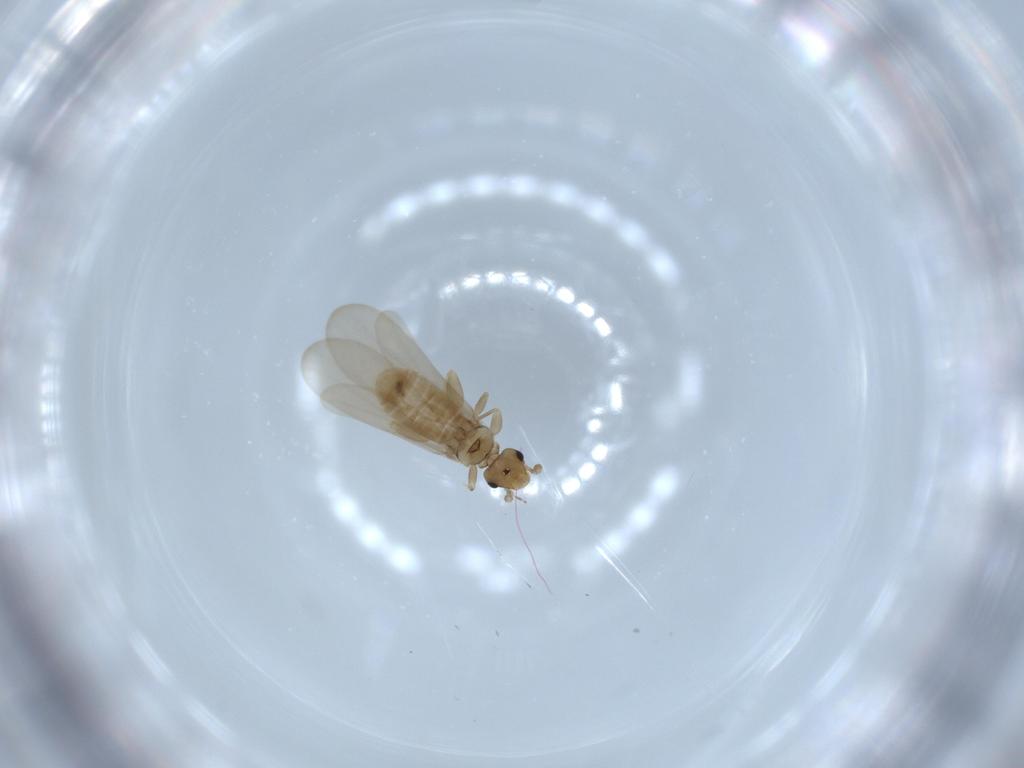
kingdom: Animalia
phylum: Arthropoda
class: Insecta
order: Psocodea
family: Liposcelididae
